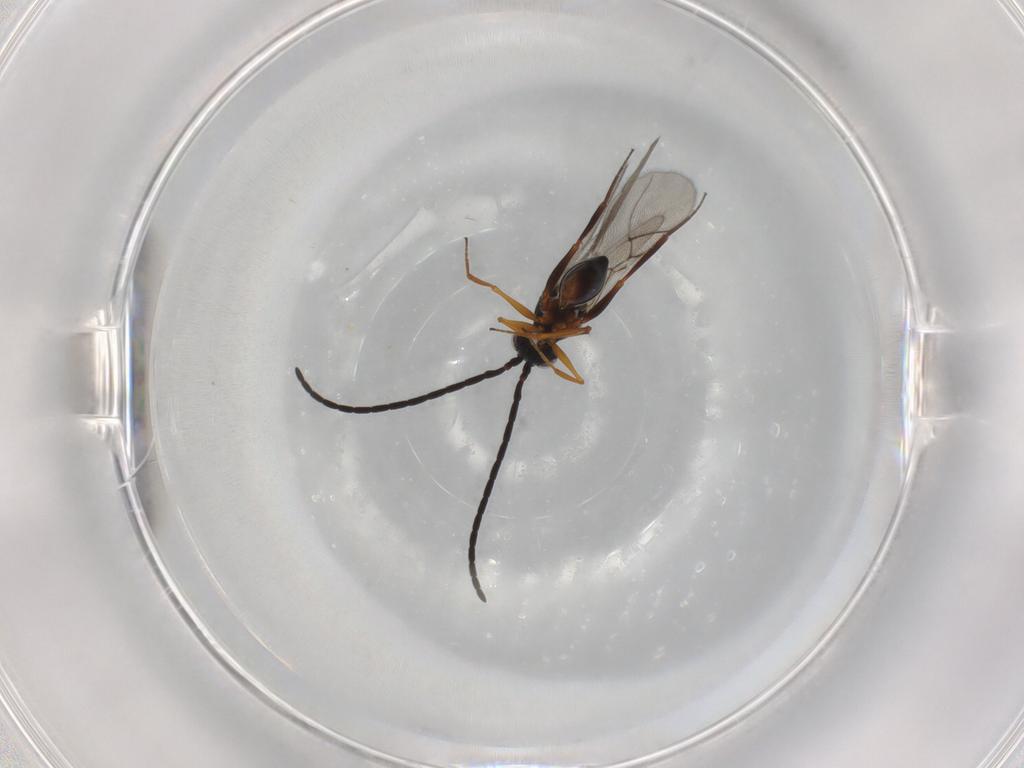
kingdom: Animalia
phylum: Arthropoda
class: Insecta
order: Hymenoptera
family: Figitidae
